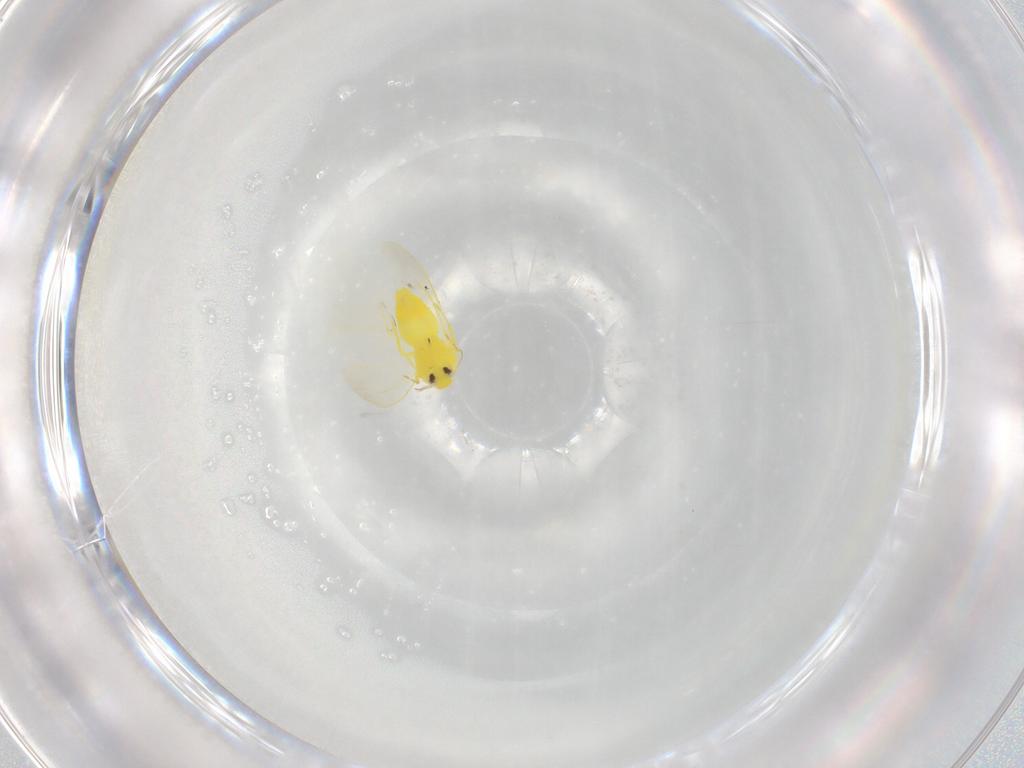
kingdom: Animalia
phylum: Arthropoda
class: Insecta
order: Hemiptera
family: Aleyrodidae
